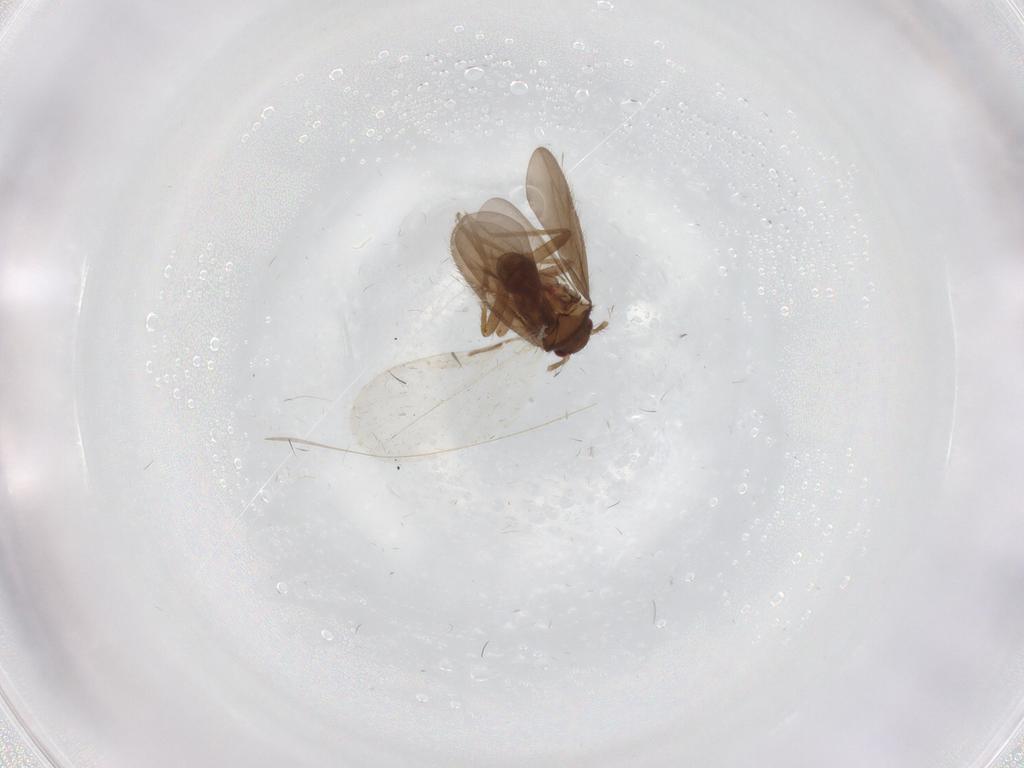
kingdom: Animalia
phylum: Arthropoda
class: Insecta
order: Hemiptera
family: Ceratocombidae
